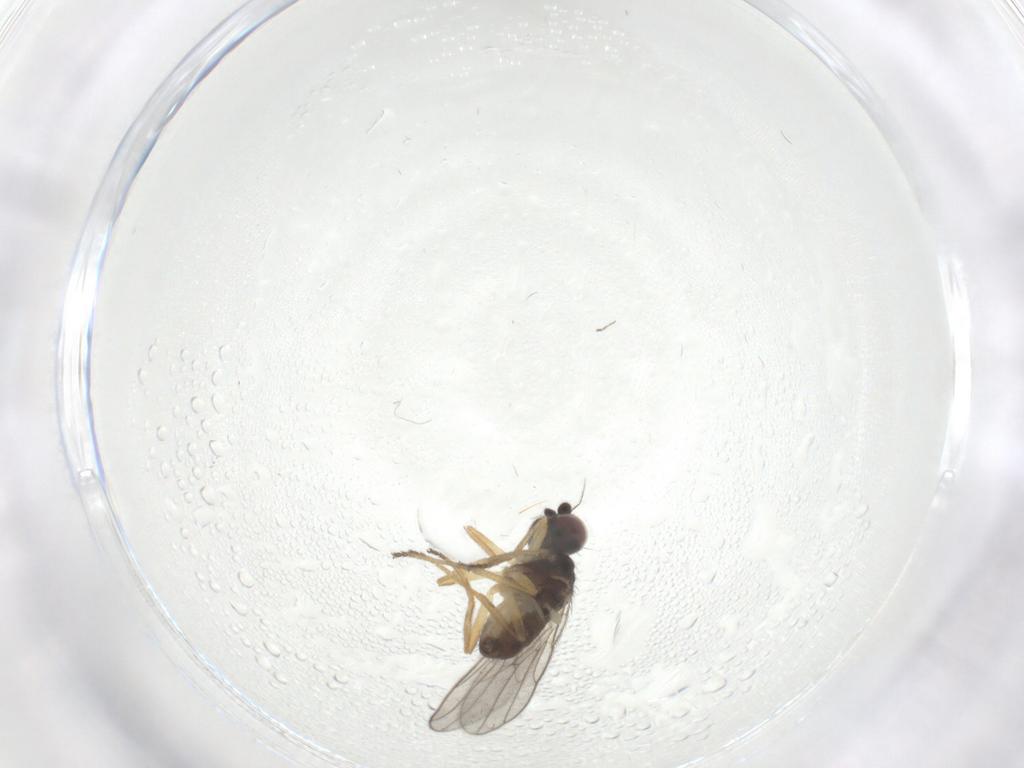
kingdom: Animalia
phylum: Arthropoda
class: Insecta
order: Diptera
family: Chloropidae
